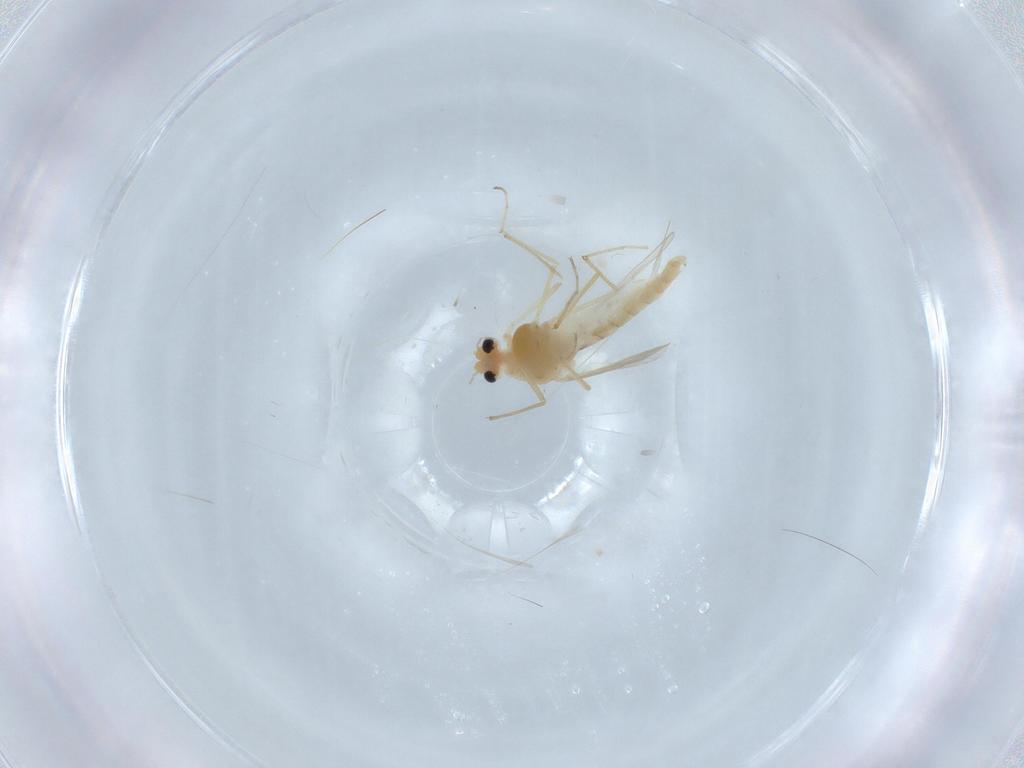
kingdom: Animalia
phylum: Arthropoda
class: Insecta
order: Diptera
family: Chironomidae
